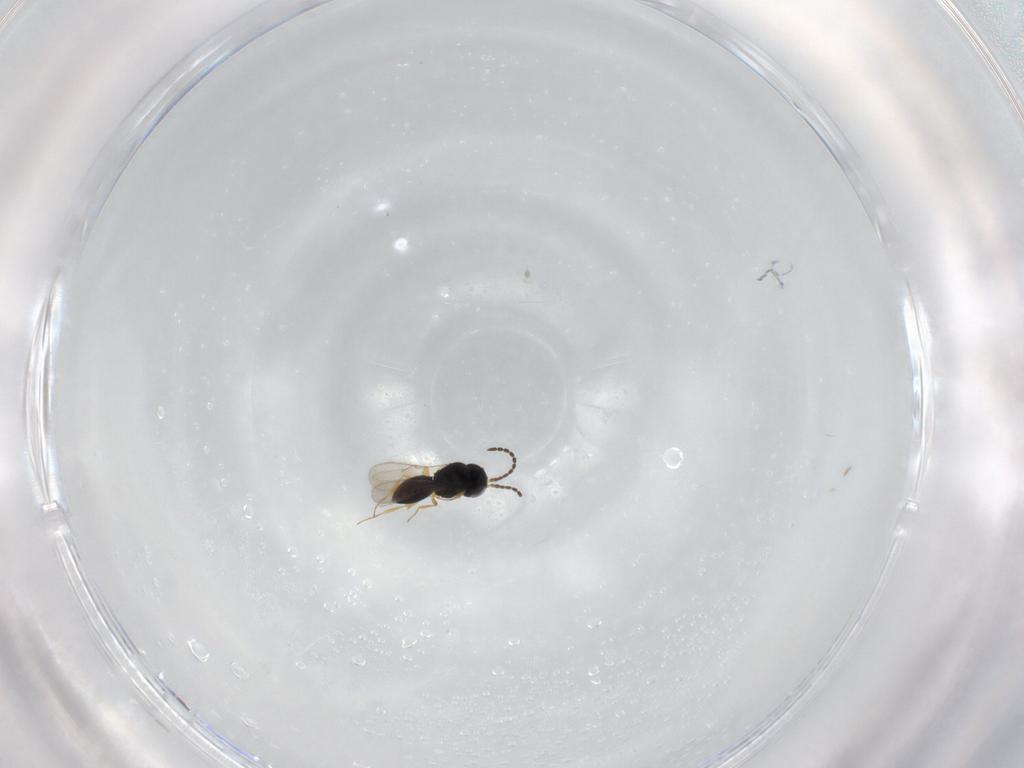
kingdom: Animalia
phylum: Arthropoda
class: Insecta
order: Hymenoptera
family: Scelionidae
